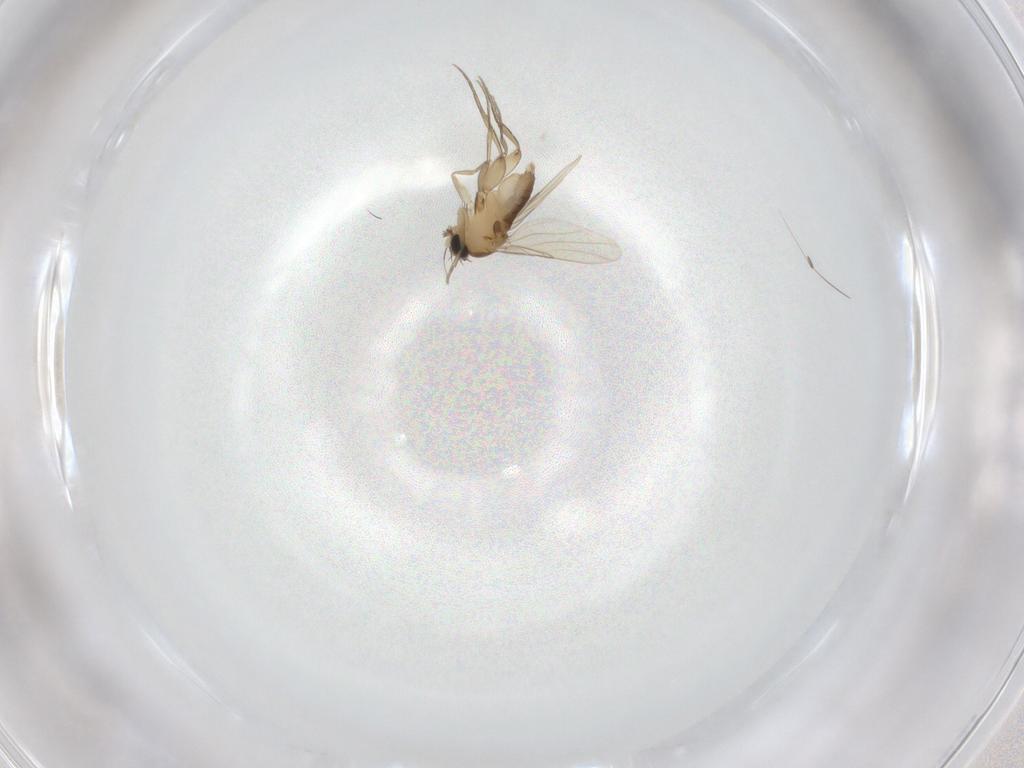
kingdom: Animalia
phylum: Arthropoda
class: Insecta
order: Diptera
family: Phoridae
